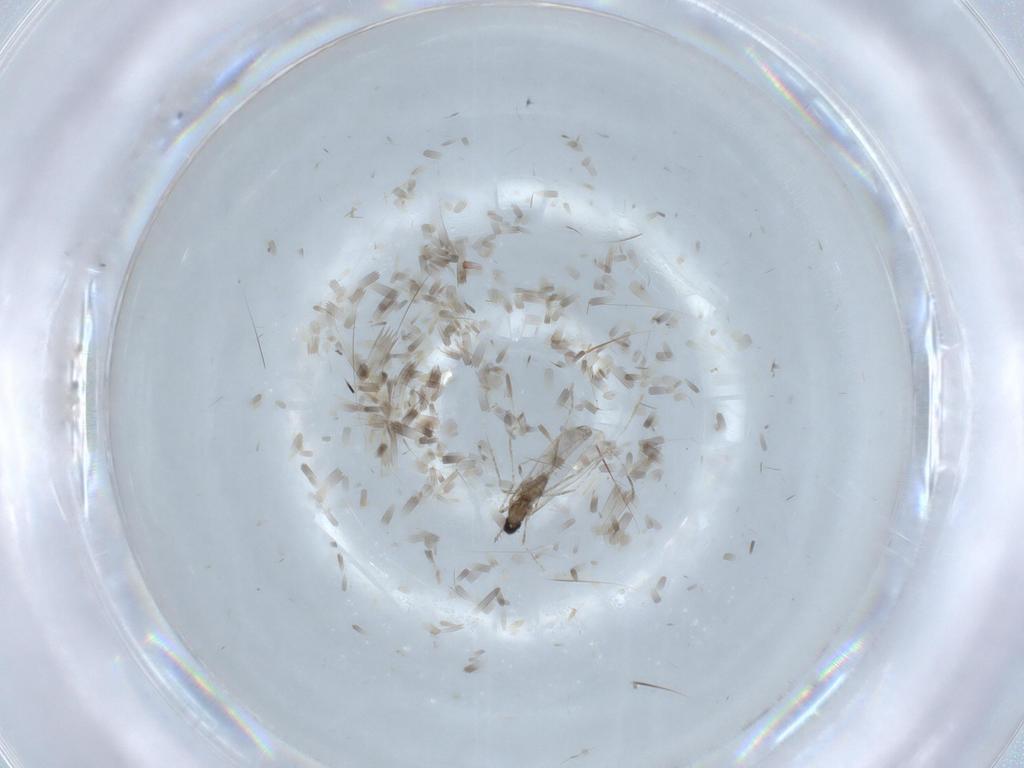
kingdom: Animalia
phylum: Arthropoda
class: Insecta
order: Diptera
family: Cecidomyiidae
